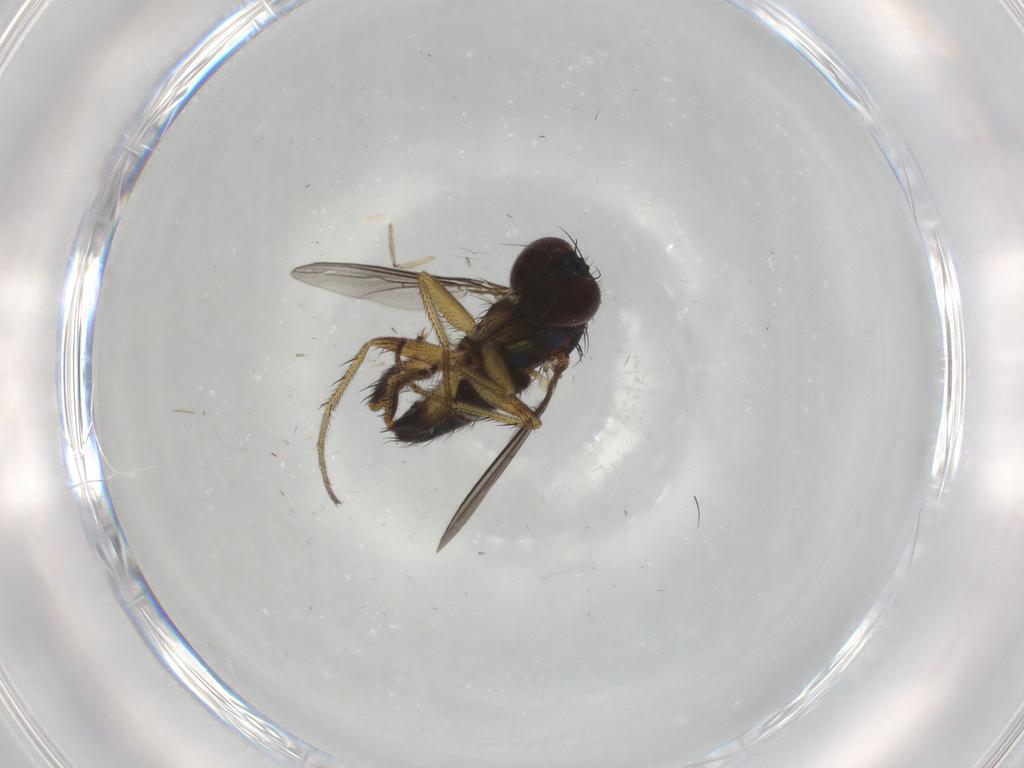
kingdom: Animalia
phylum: Arthropoda
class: Insecta
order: Diptera
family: Dolichopodidae
